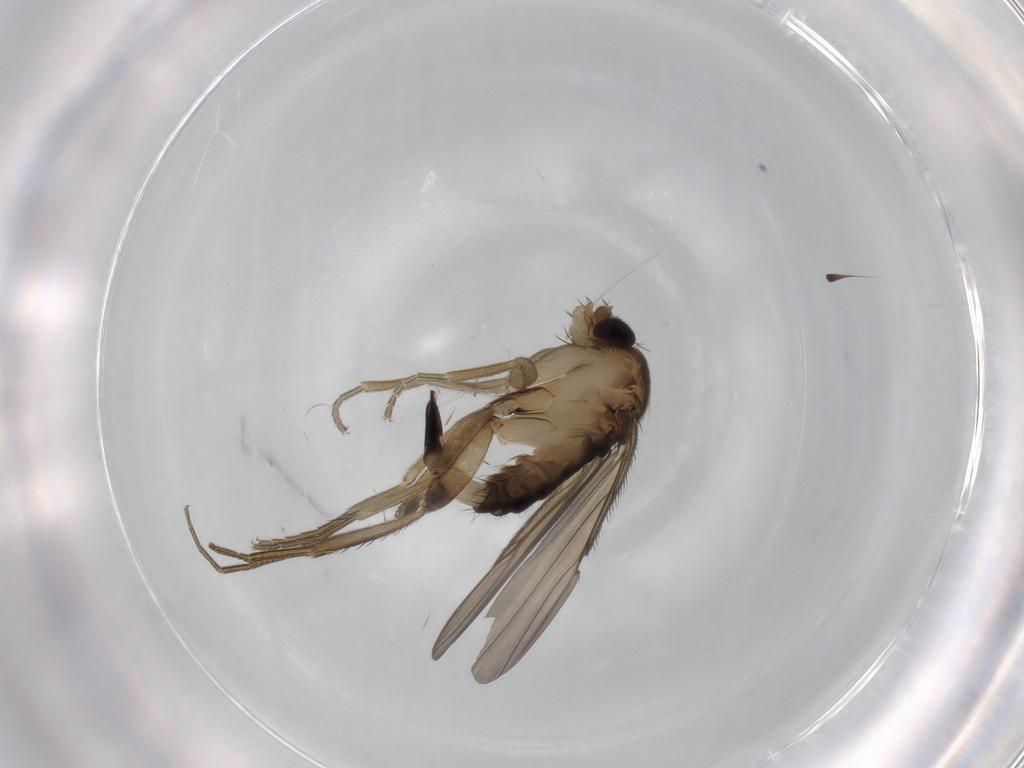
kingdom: Animalia
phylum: Arthropoda
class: Insecta
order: Diptera
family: Phoridae
